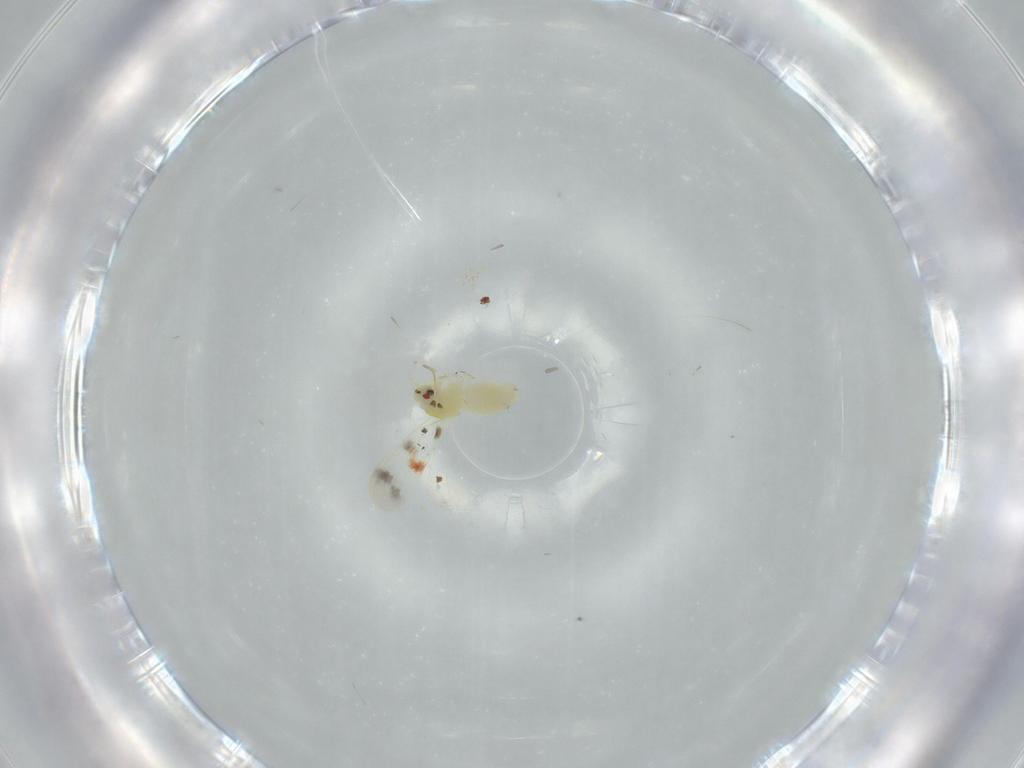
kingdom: Animalia
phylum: Arthropoda
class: Insecta
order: Hemiptera
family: Aleyrodidae
